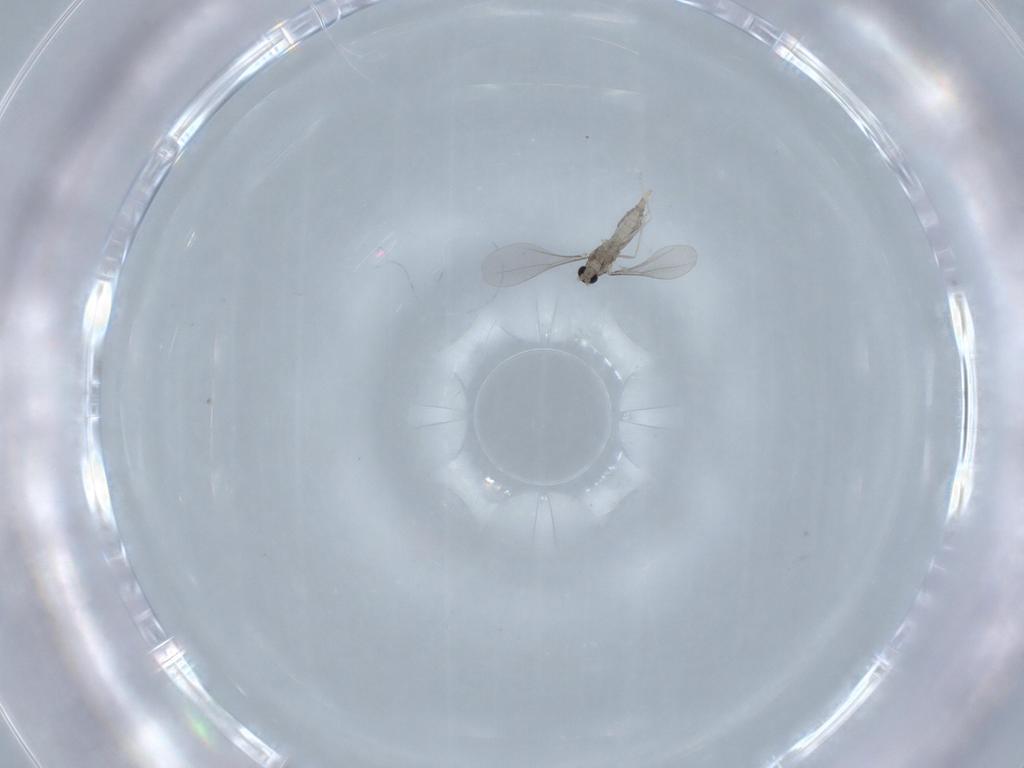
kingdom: Animalia
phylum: Arthropoda
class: Insecta
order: Diptera
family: Cecidomyiidae
